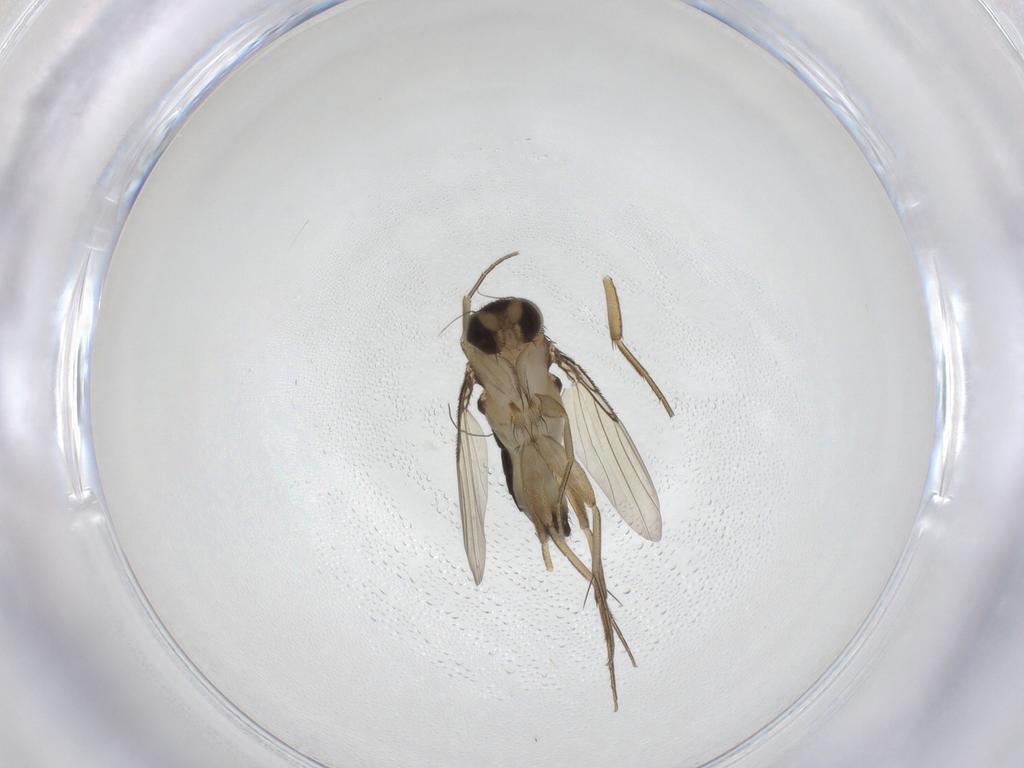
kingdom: Animalia
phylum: Arthropoda
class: Insecta
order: Diptera
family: Phoridae
